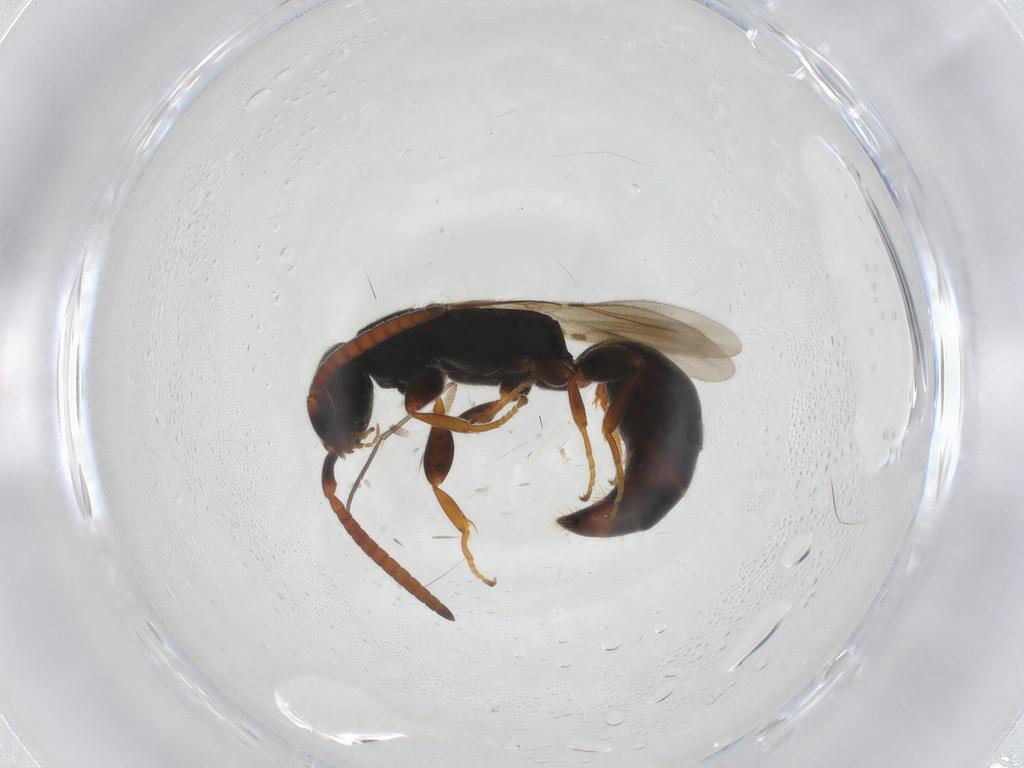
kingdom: Animalia
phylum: Arthropoda
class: Insecta
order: Hymenoptera
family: Bethylidae
